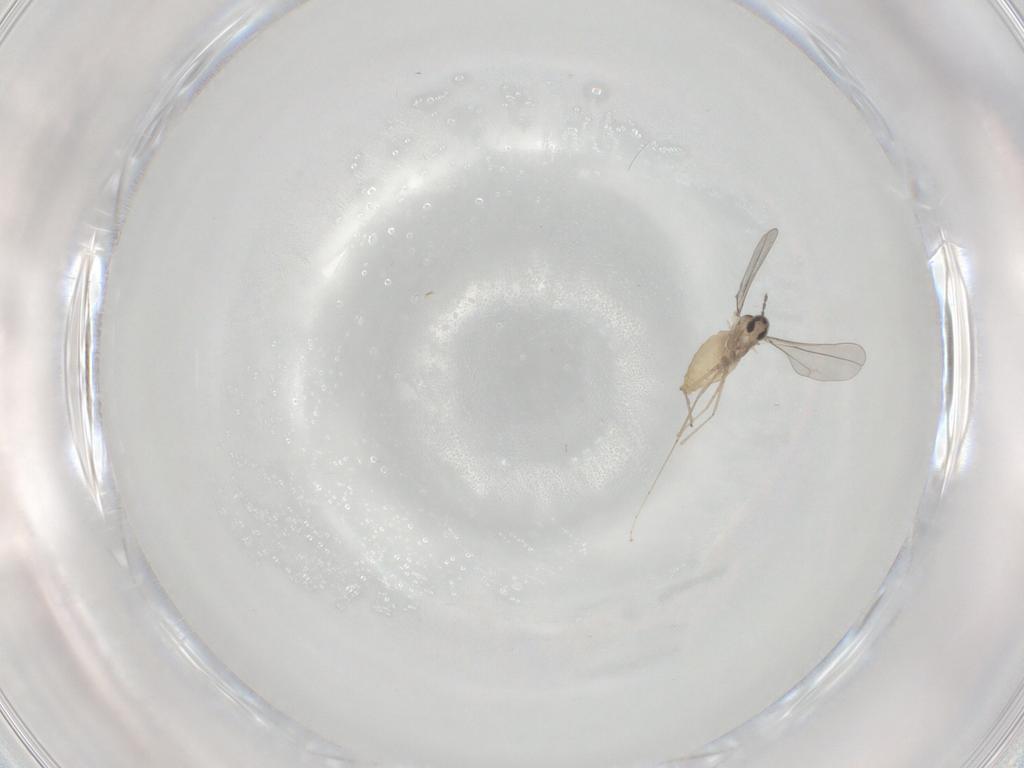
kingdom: Animalia
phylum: Arthropoda
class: Insecta
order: Diptera
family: Cecidomyiidae
